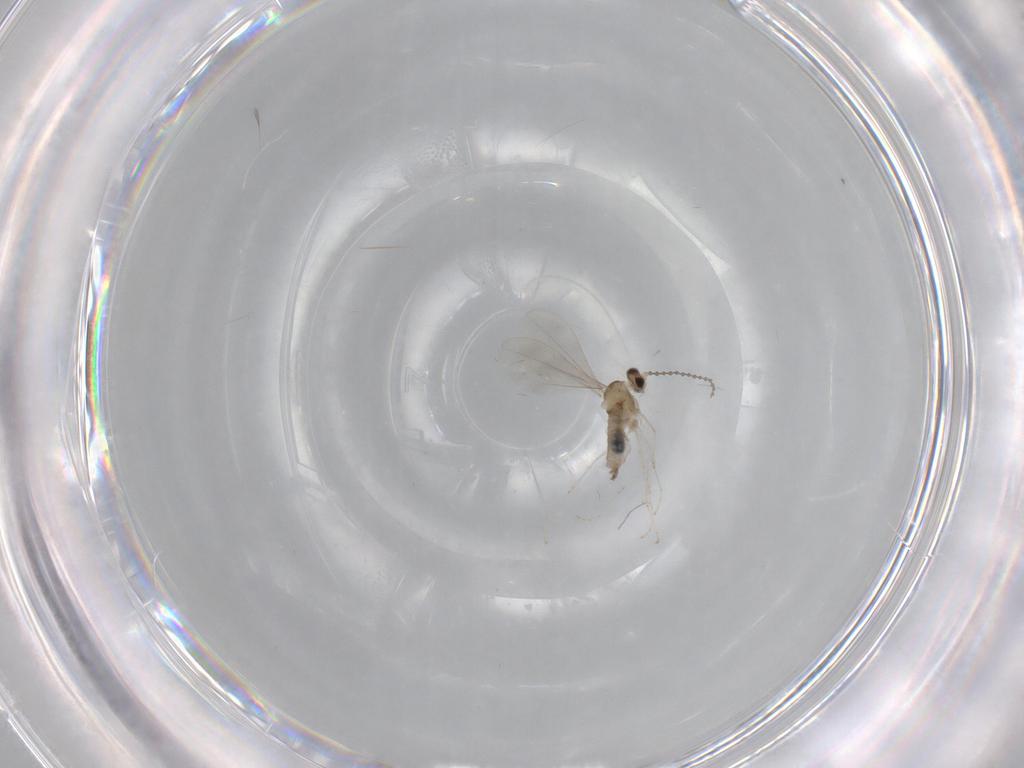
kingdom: Animalia
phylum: Arthropoda
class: Insecta
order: Diptera
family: Cecidomyiidae
